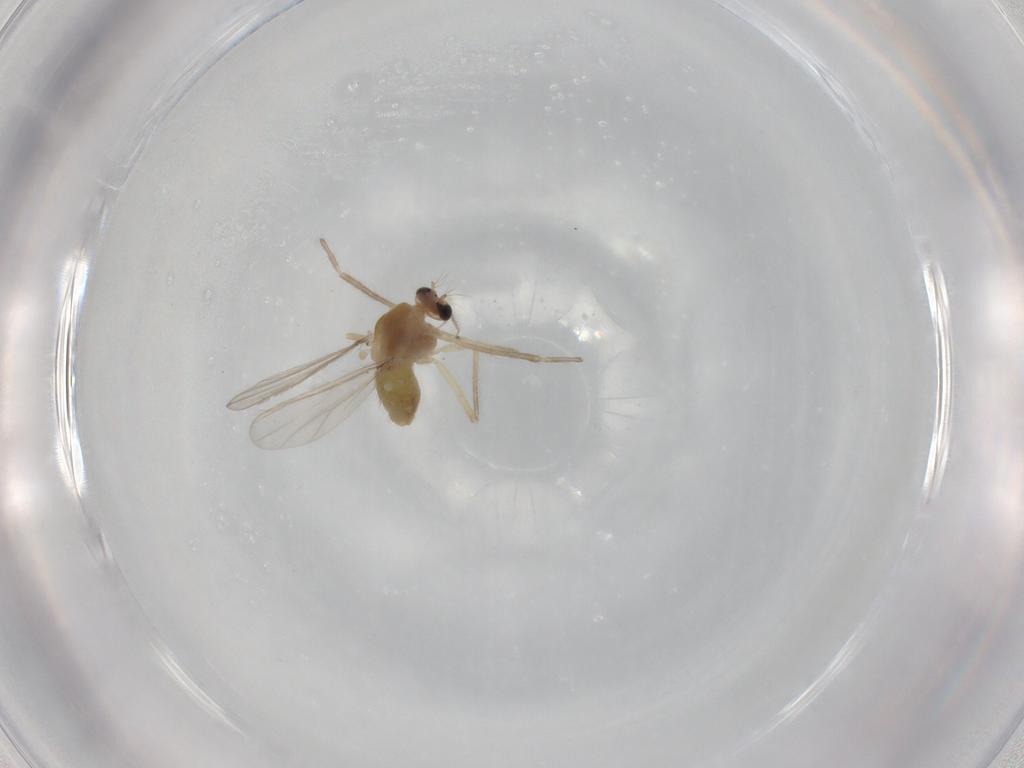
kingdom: Animalia
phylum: Arthropoda
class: Insecta
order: Diptera
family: Chironomidae
